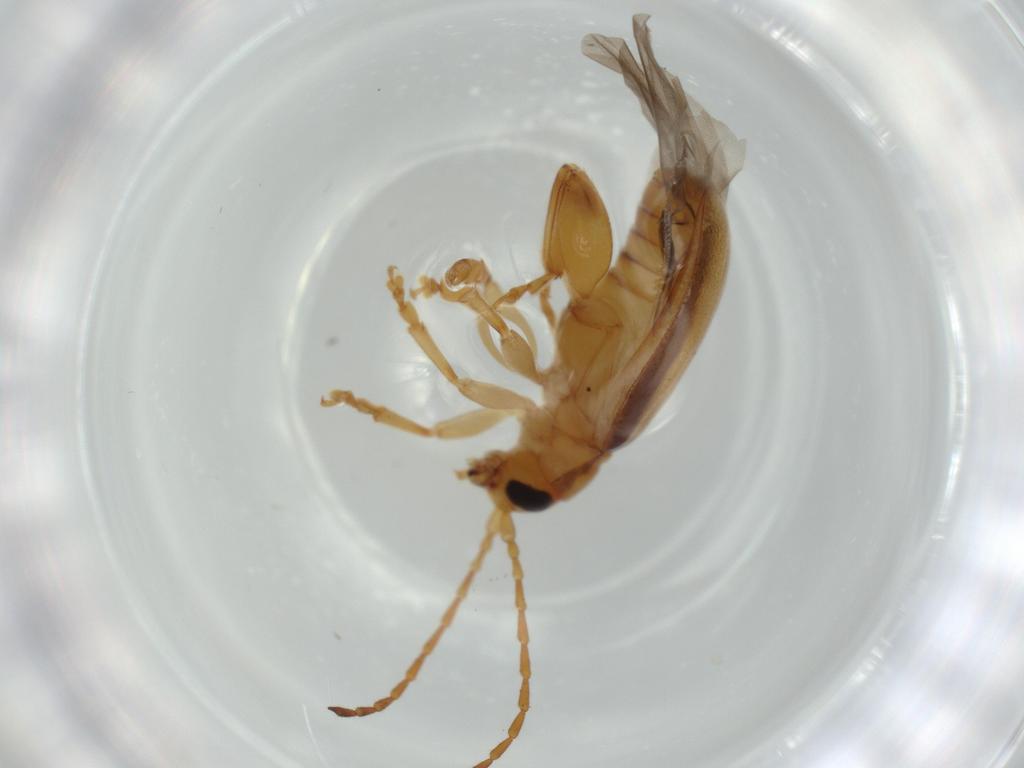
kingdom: Animalia
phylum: Arthropoda
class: Insecta
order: Coleoptera
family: Chrysomelidae
